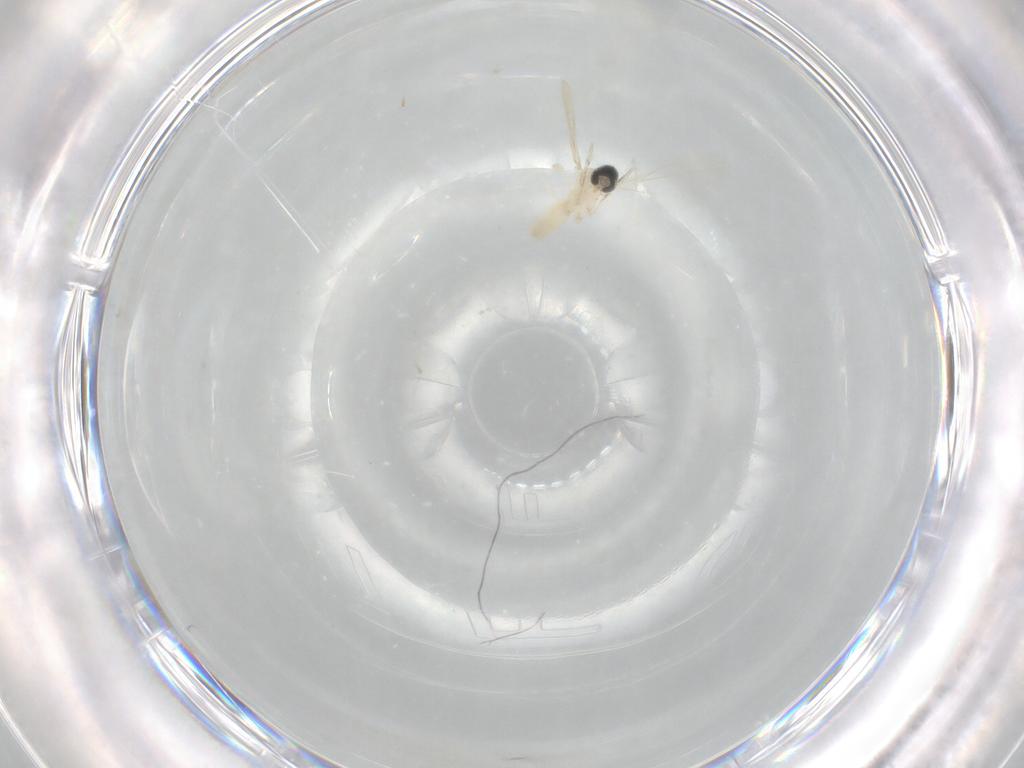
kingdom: Animalia
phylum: Arthropoda
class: Insecta
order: Diptera
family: Cecidomyiidae
